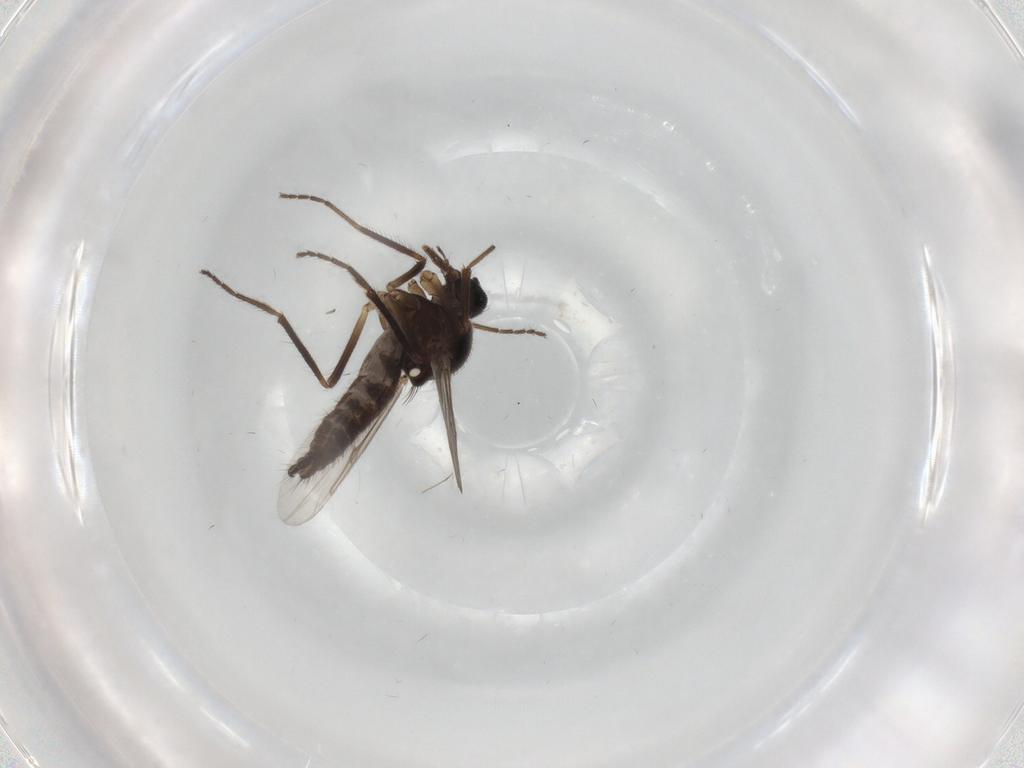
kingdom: Animalia
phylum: Arthropoda
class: Insecta
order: Diptera
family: Ceratopogonidae
